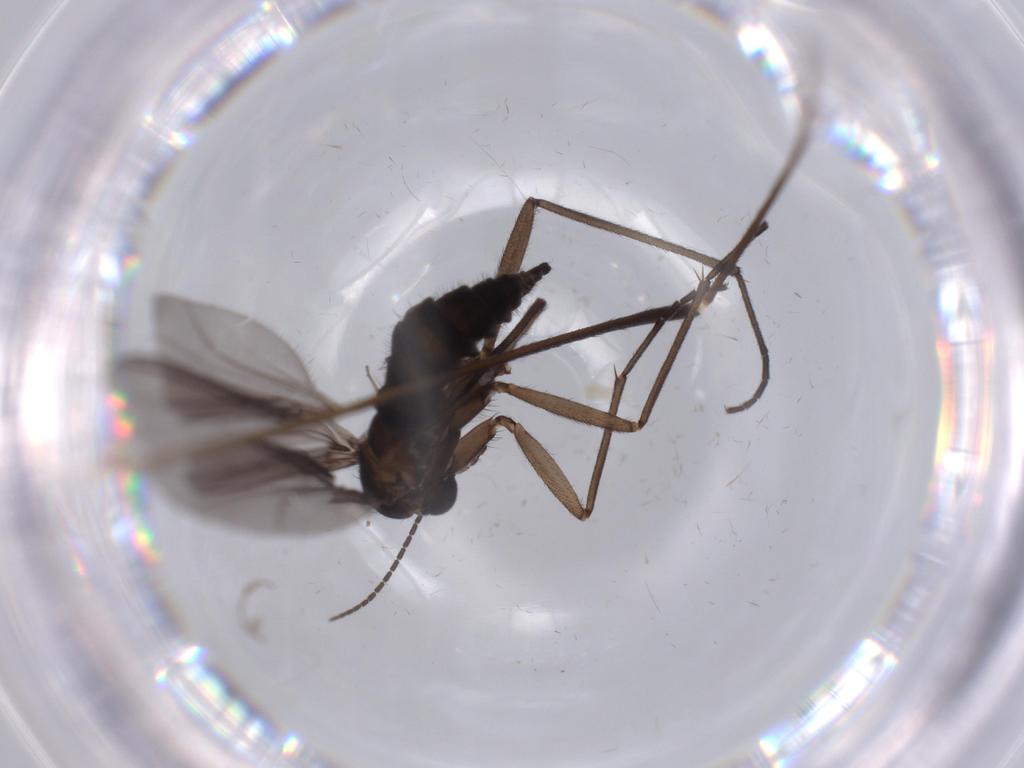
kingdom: Animalia
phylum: Arthropoda
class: Insecta
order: Diptera
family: Sciaridae
